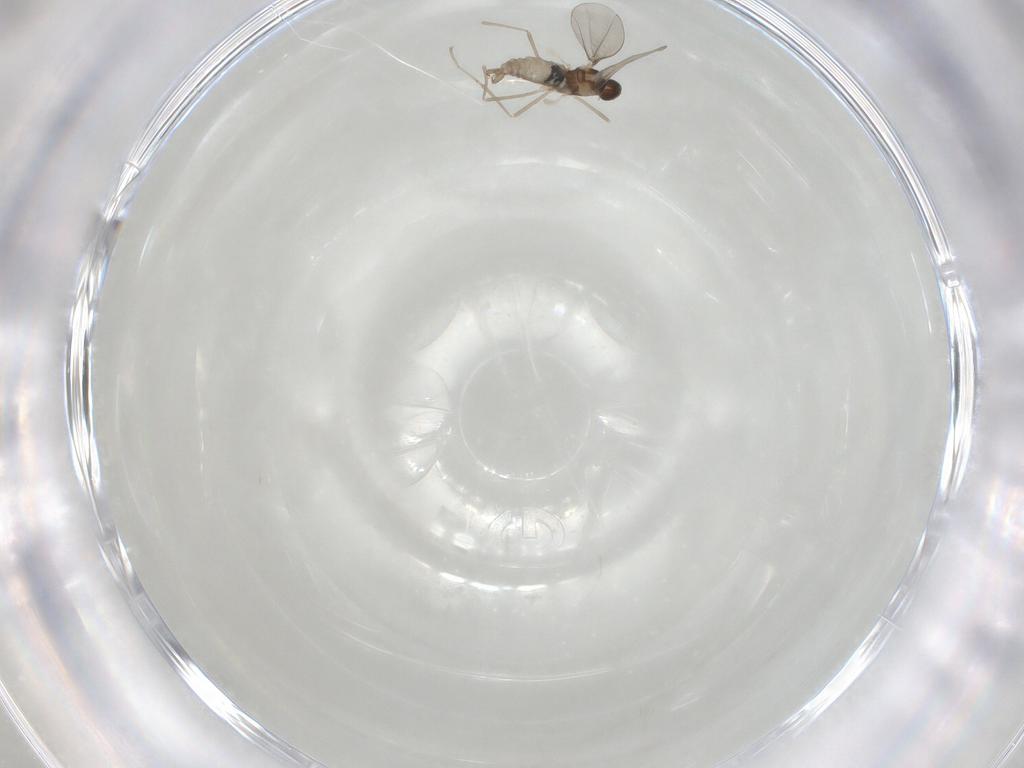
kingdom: Animalia
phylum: Arthropoda
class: Insecta
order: Diptera
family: Cecidomyiidae
